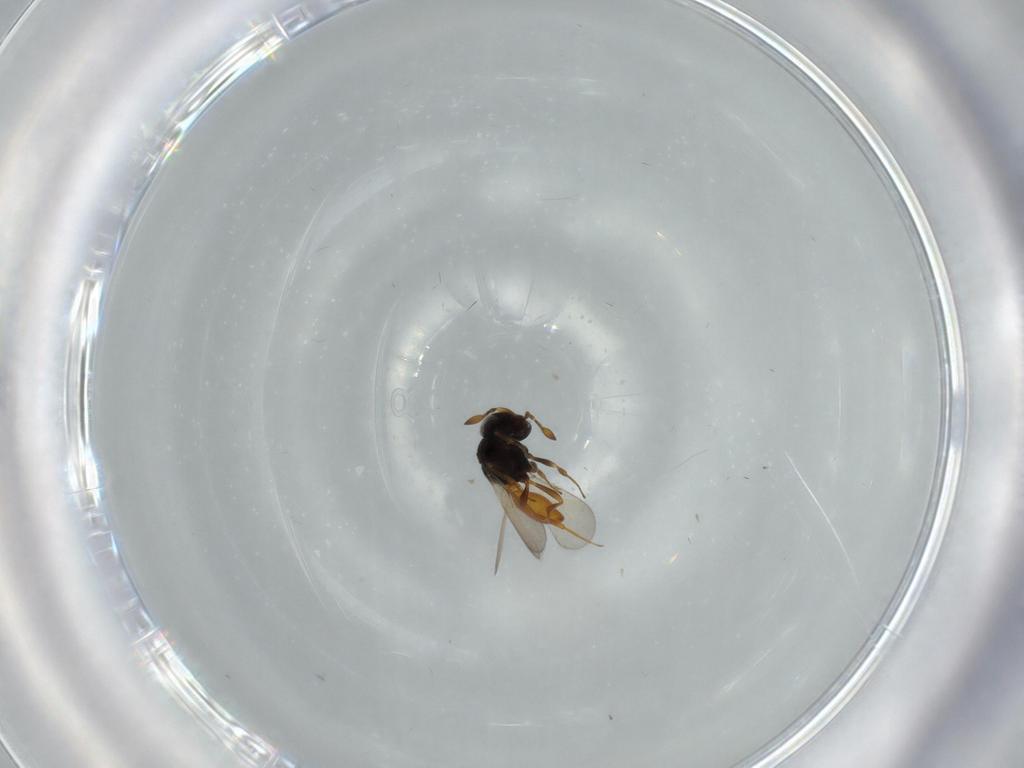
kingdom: Animalia
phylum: Arthropoda
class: Insecta
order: Hymenoptera
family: Scelionidae
